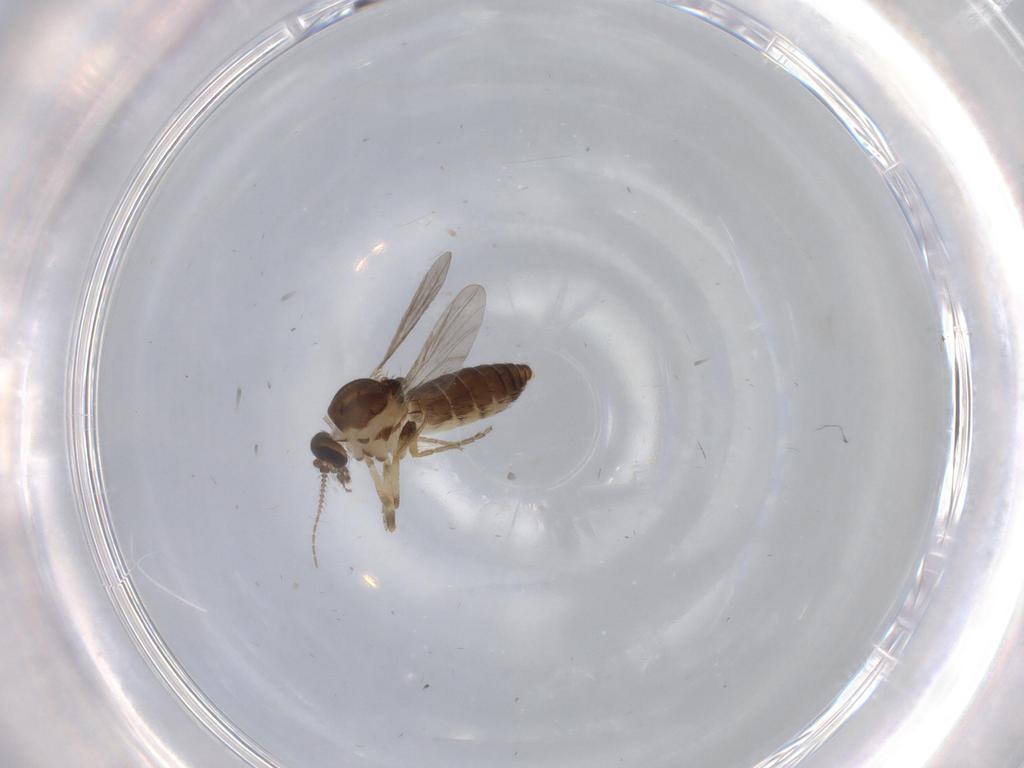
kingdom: Animalia
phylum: Arthropoda
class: Insecta
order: Diptera
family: Ceratopogonidae
